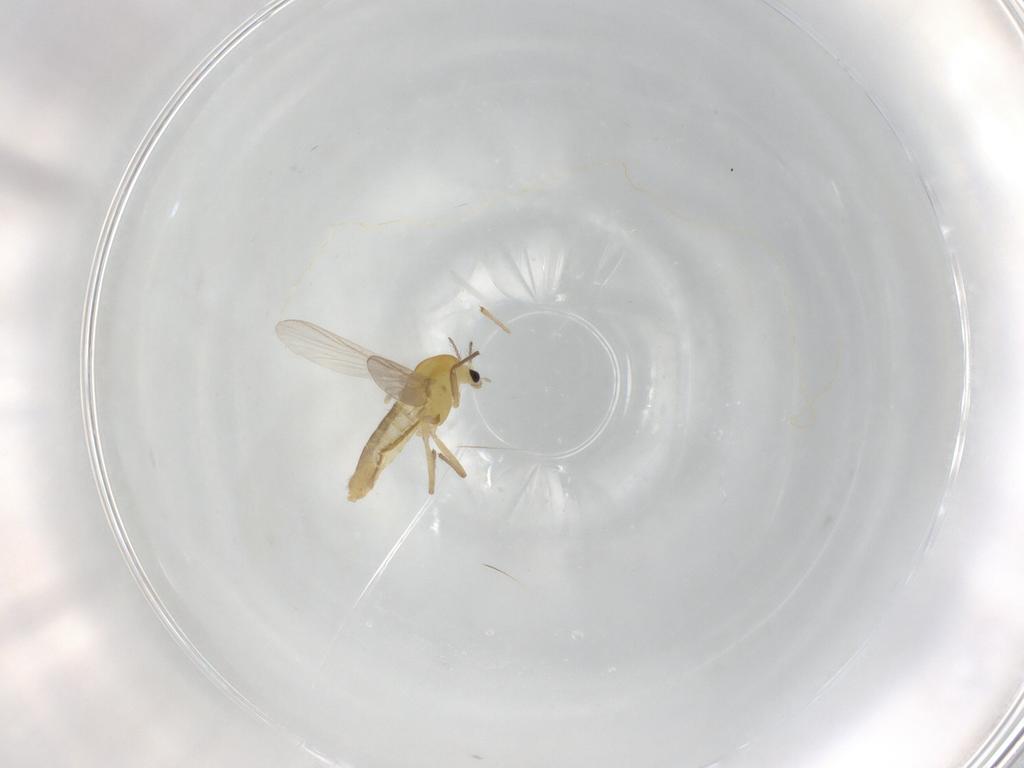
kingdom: Animalia
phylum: Arthropoda
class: Insecta
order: Diptera
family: Chironomidae
